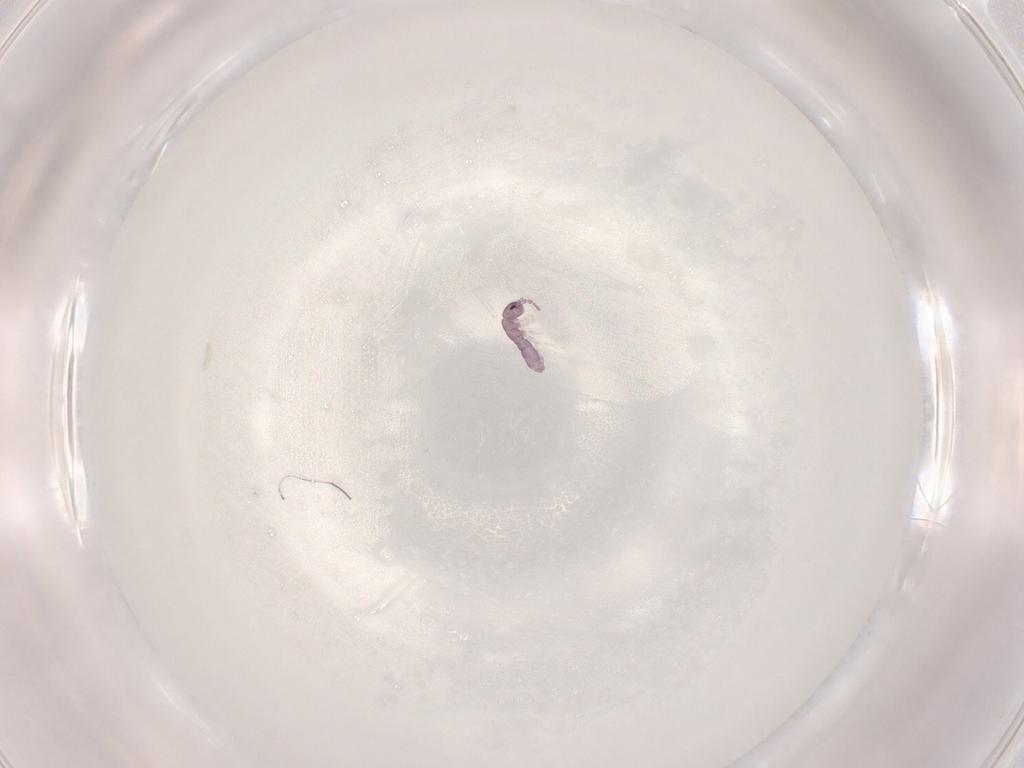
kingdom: Animalia
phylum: Arthropoda
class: Collembola
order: Entomobryomorpha
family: Isotomidae
